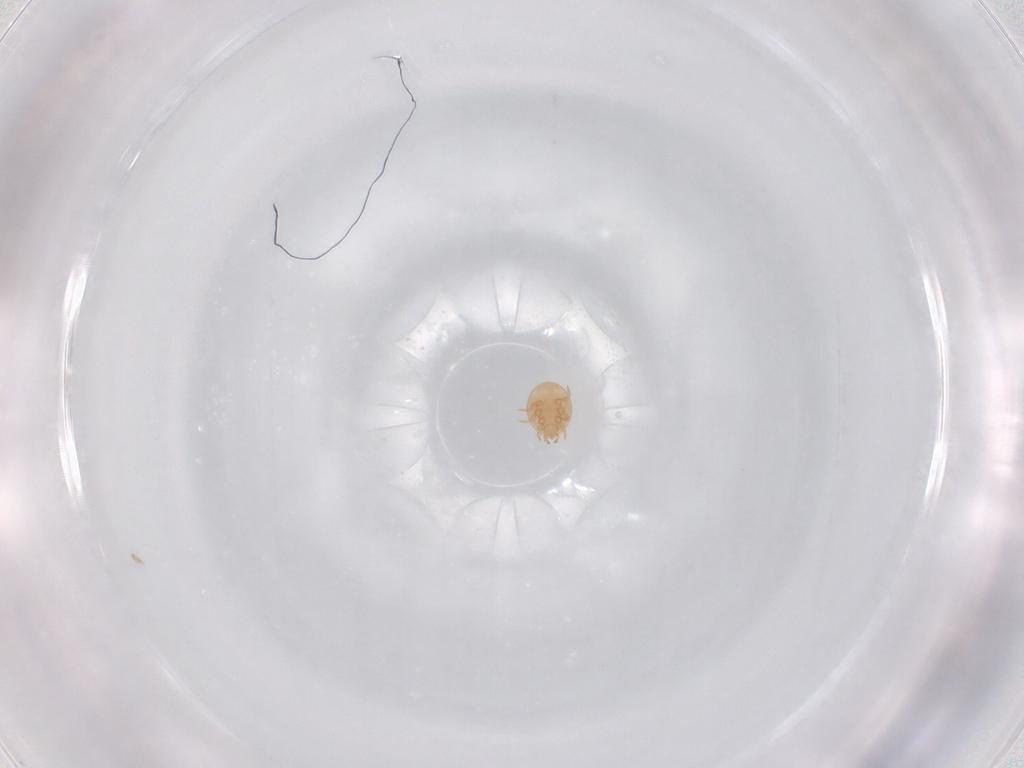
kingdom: Animalia
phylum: Arthropoda
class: Arachnida
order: Mesostigmata
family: Trematuridae
